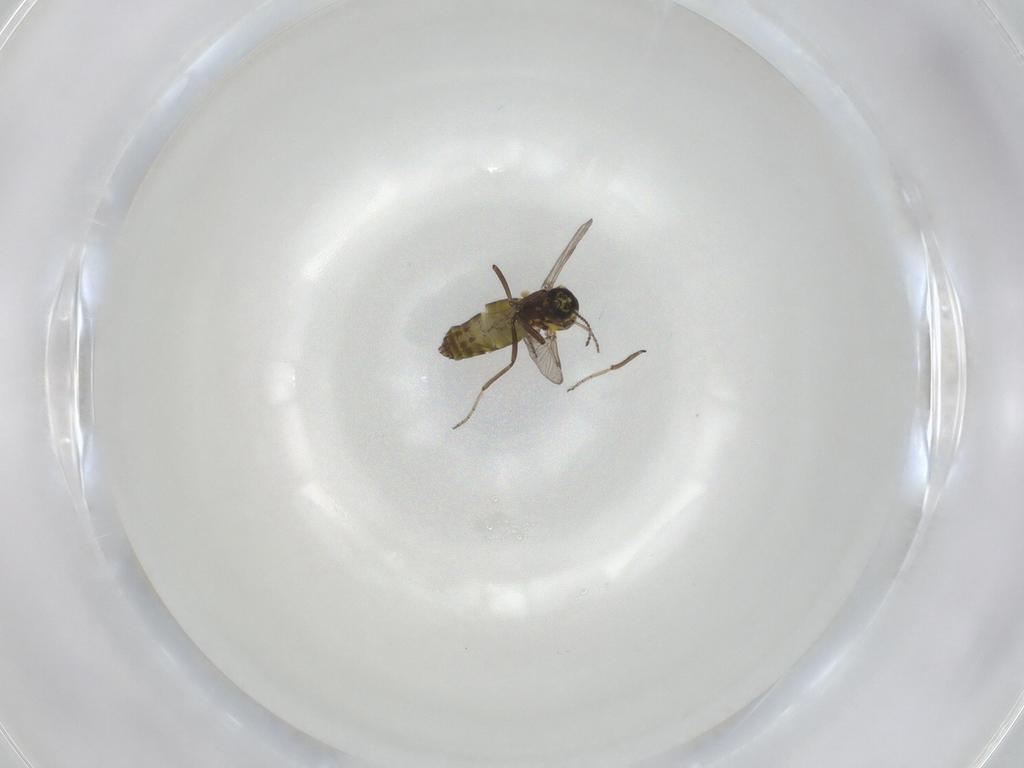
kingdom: Animalia
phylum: Arthropoda
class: Insecta
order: Diptera
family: Ceratopogonidae
